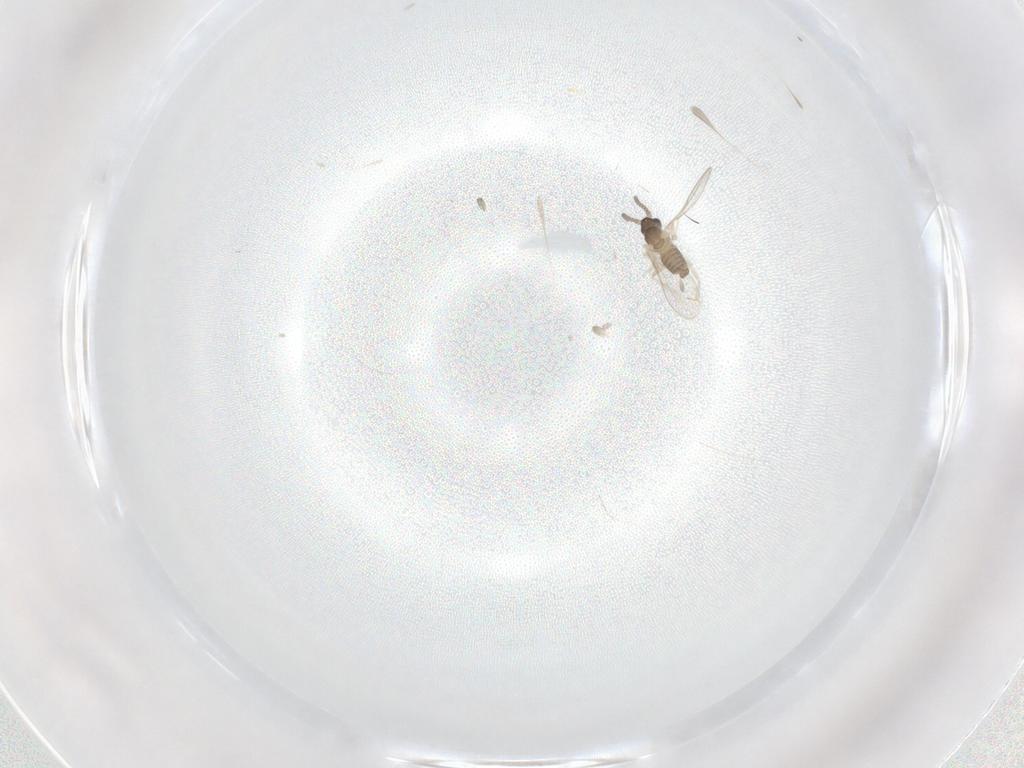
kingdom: Animalia
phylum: Arthropoda
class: Insecta
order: Diptera
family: Cecidomyiidae
